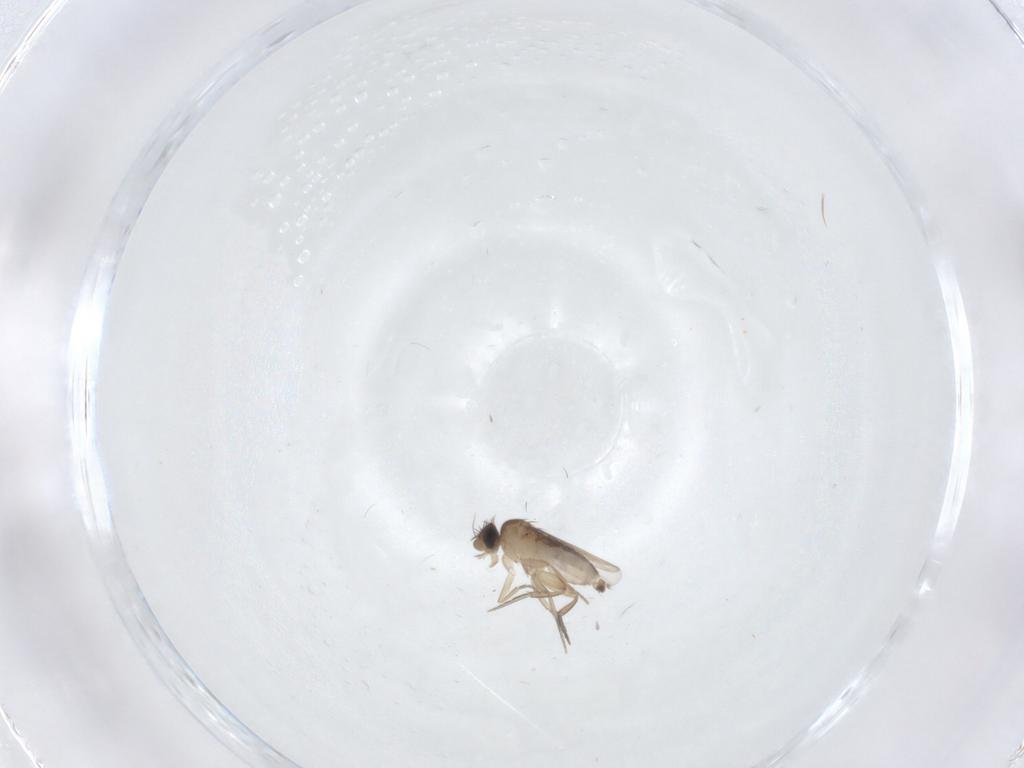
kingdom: Animalia
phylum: Arthropoda
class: Insecta
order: Diptera
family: Phoridae
